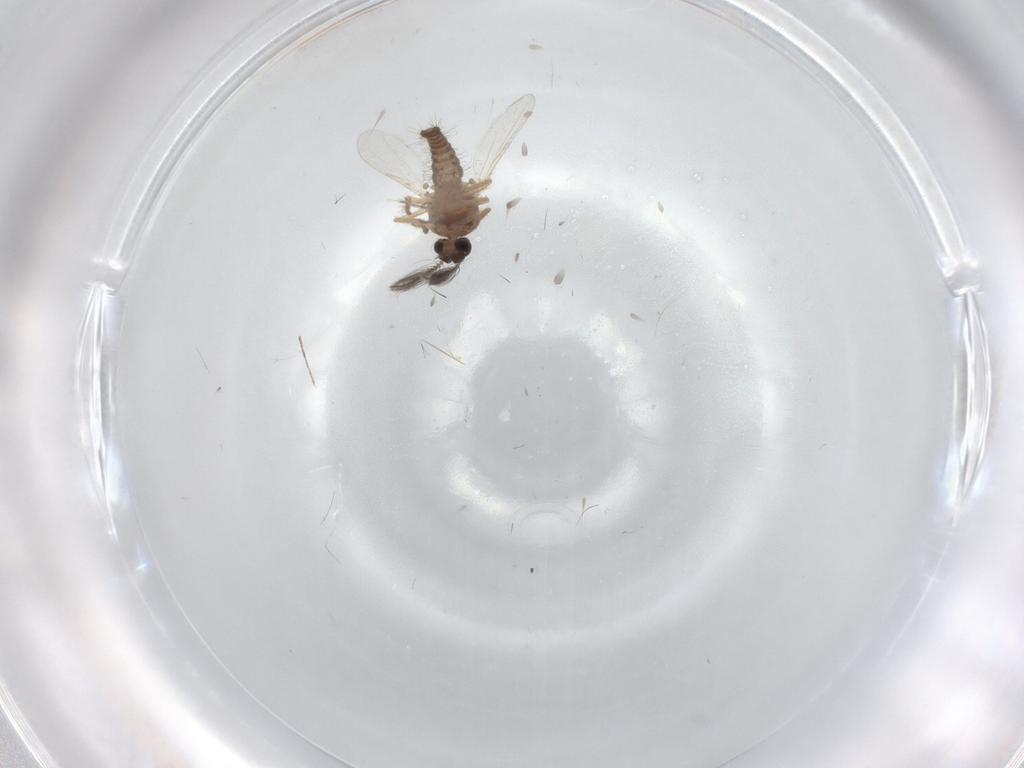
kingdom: Animalia
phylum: Arthropoda
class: Insecta
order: Diptera
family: Ceratopogonidae
